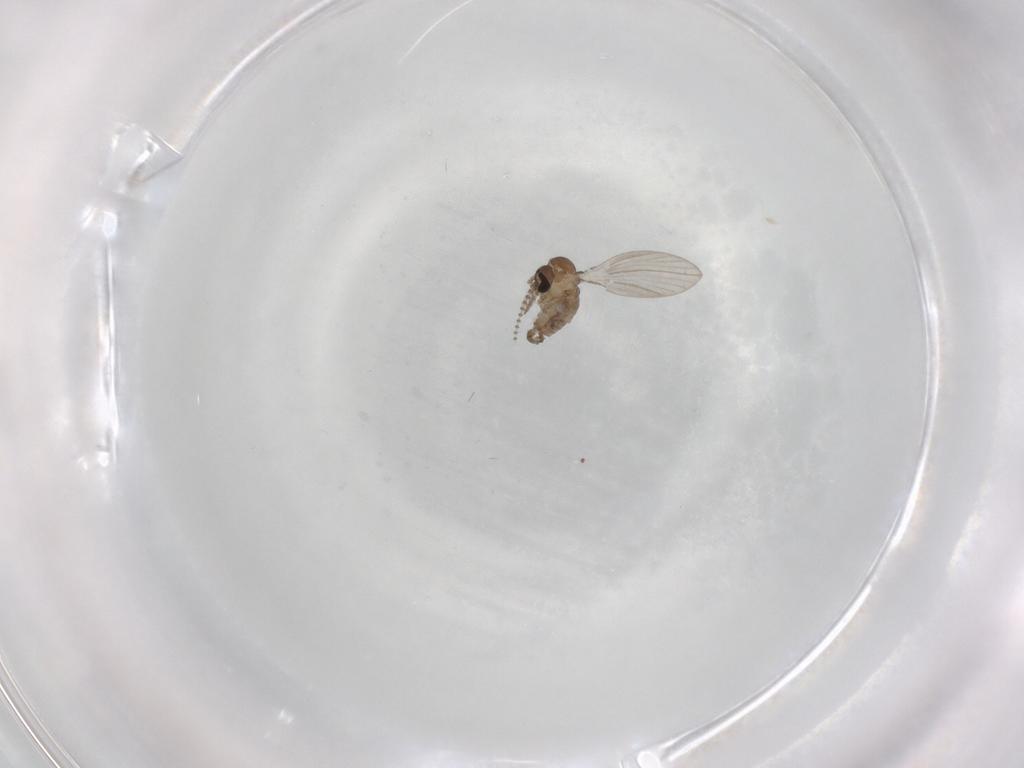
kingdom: Animalia
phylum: Arthropoda
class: Insecta
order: Diptera
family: Psychodidae
